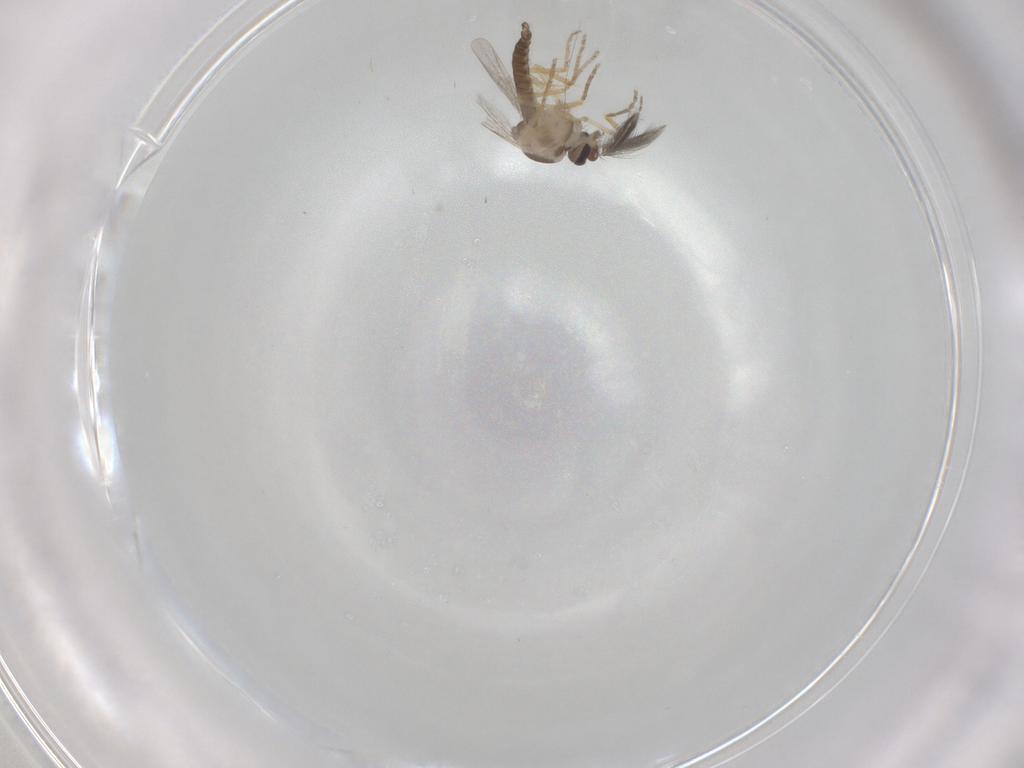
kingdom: Animalia
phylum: Arthropoda
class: Insecta
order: Diptera
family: Ceratopogonidae
